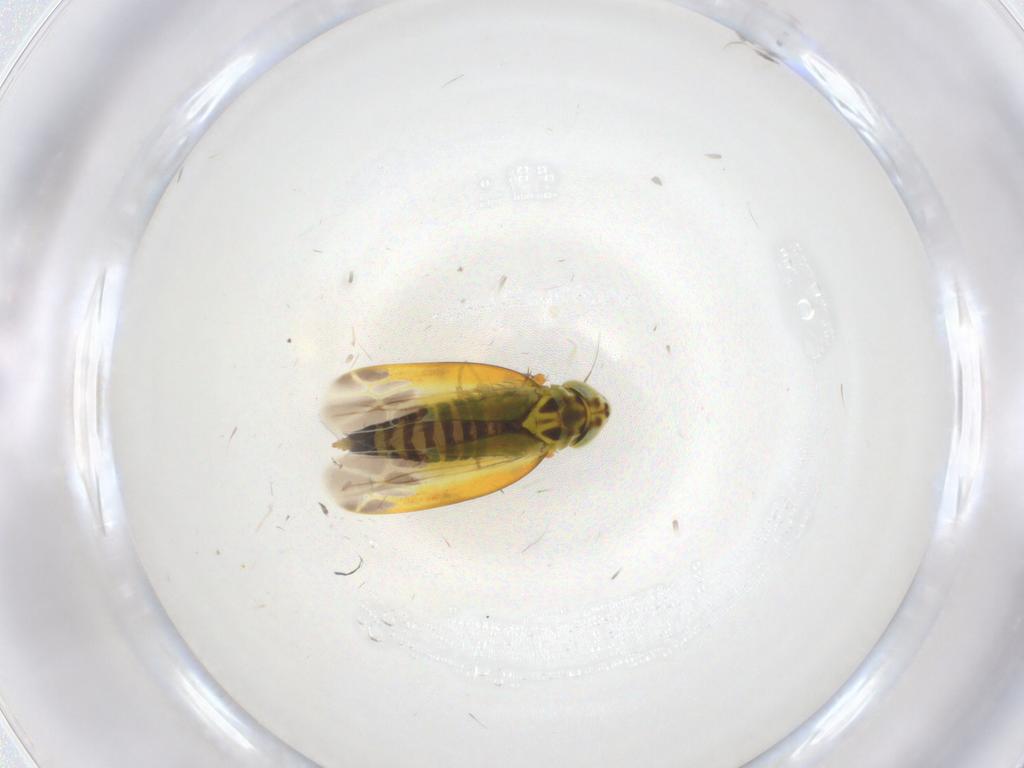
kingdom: Animalia
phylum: Arthropoda
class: Insecta
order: Hemiptera
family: Cicadellidae
